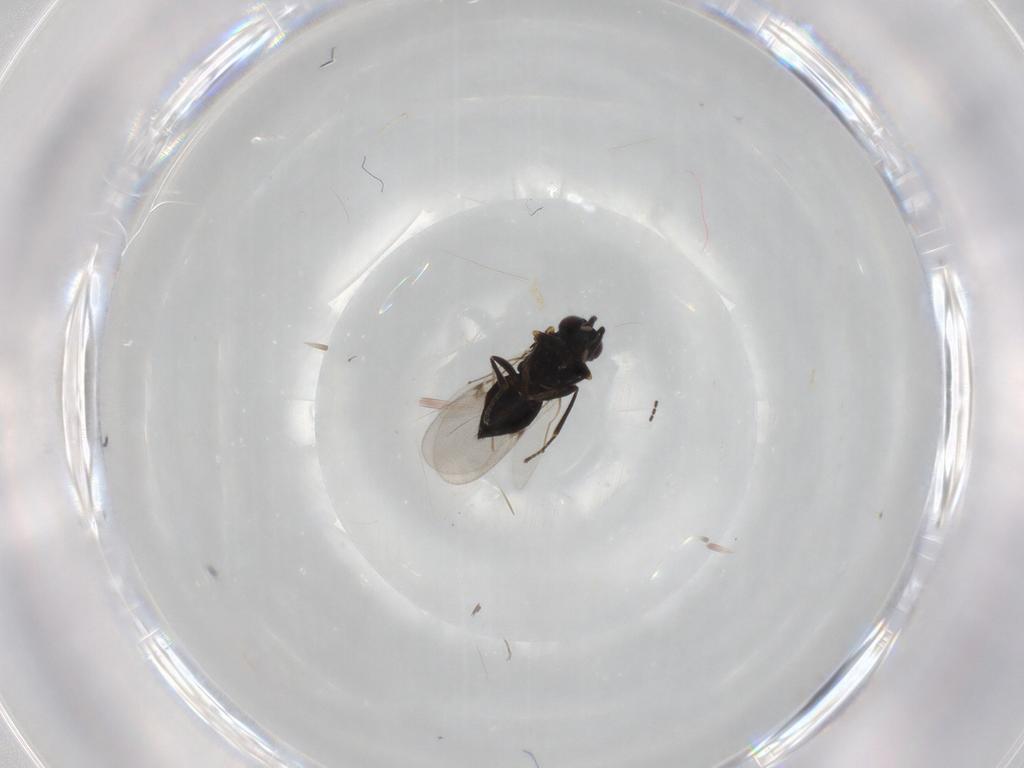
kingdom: Animalia
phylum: Arthropoda
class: Insecta
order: Hymenoptera
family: Encyrtidae
